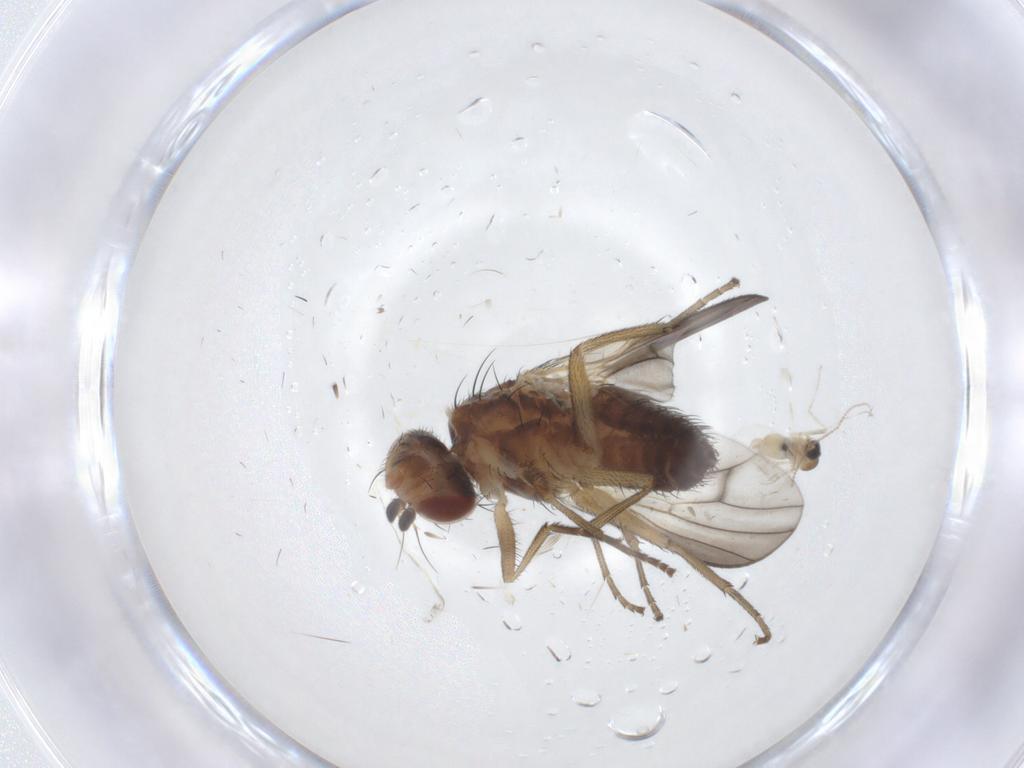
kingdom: Animalia
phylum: Arthropoda
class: Insecta
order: Diptera
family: Heleomyzidae
